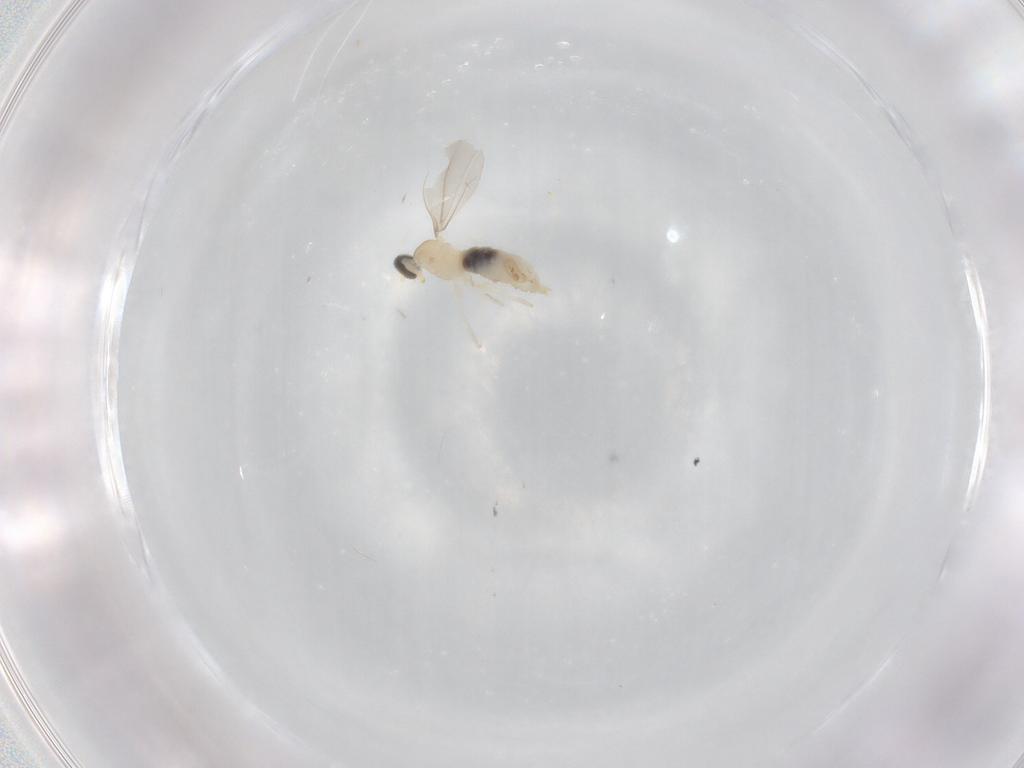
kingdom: Animalia
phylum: Arthropoda
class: Insecta
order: Diptera
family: Cecidomyiidae
